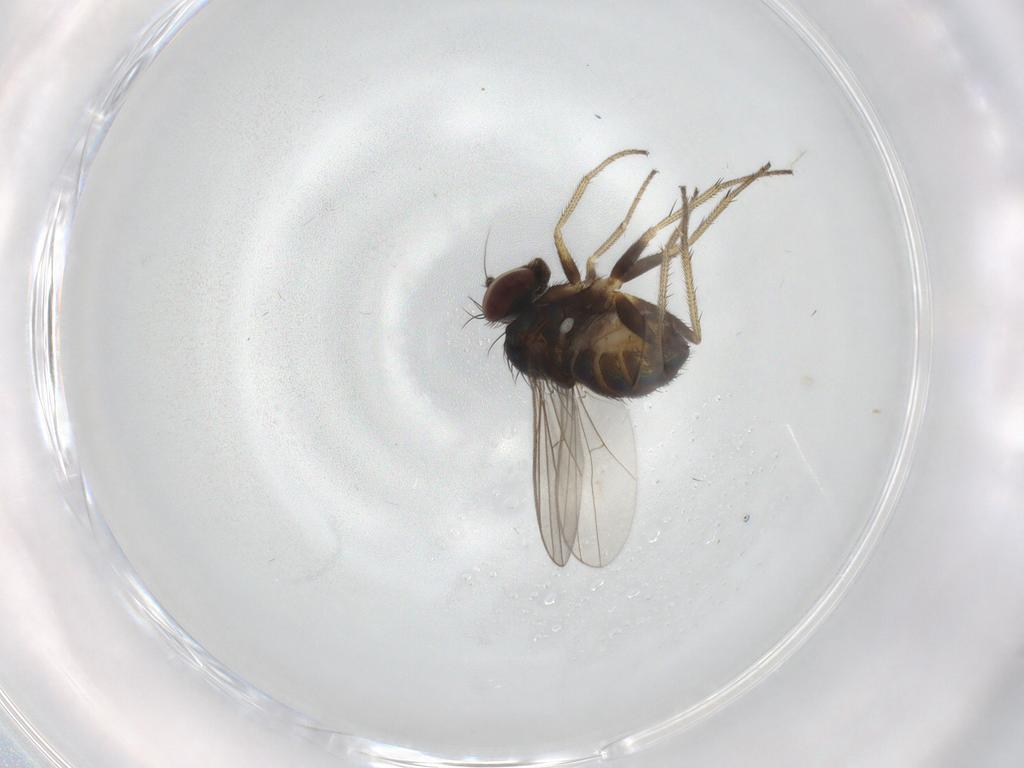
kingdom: Animalia
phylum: Arthropoda
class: Insecta
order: Diptera
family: Dolichopodidae
